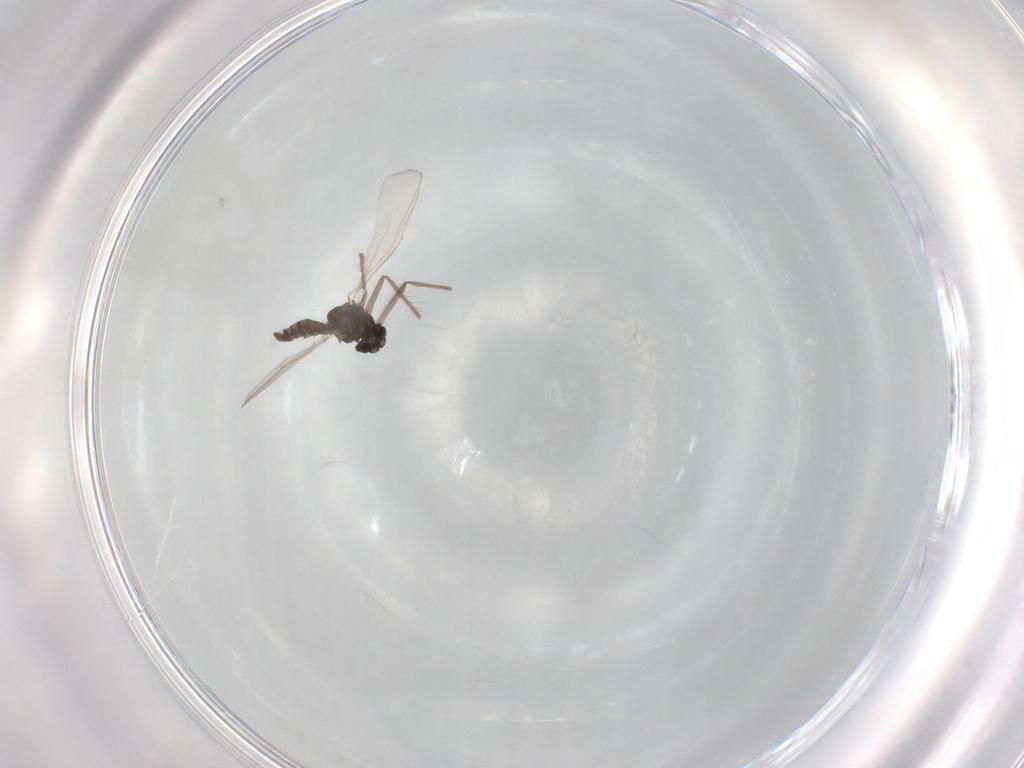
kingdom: Animalia
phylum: Arthropoda
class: Insecta
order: Diptera
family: Chironomidae
